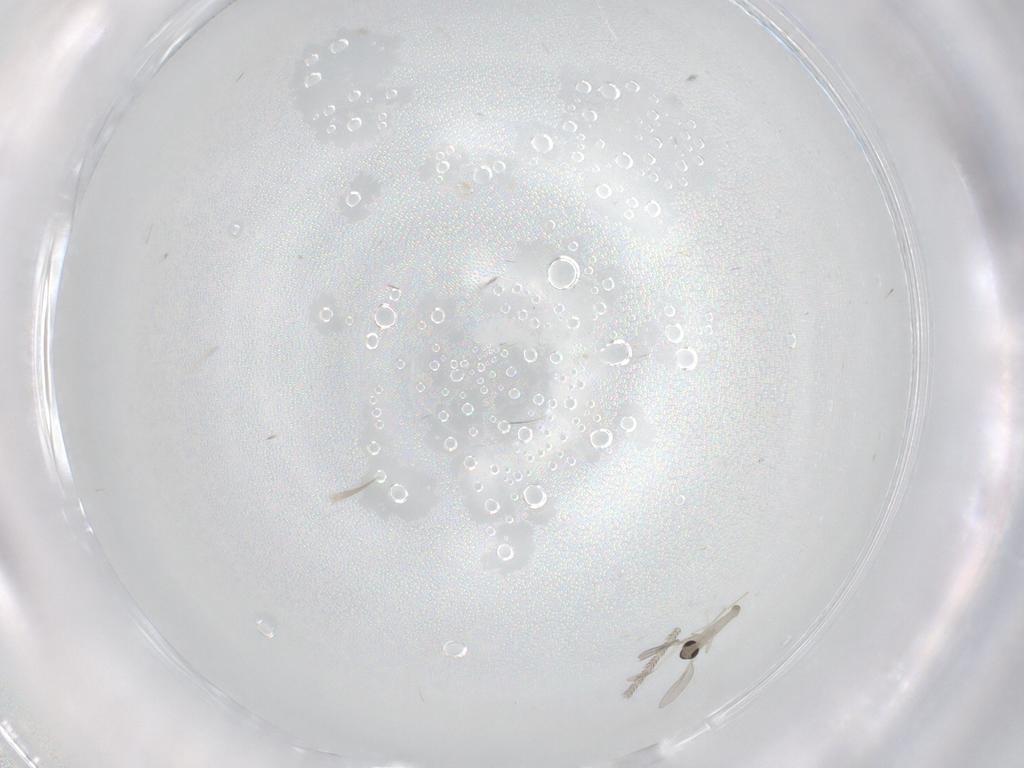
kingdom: Animalia
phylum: Arthropoda
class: Insecta
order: Diptera
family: Cecidomyiidae
